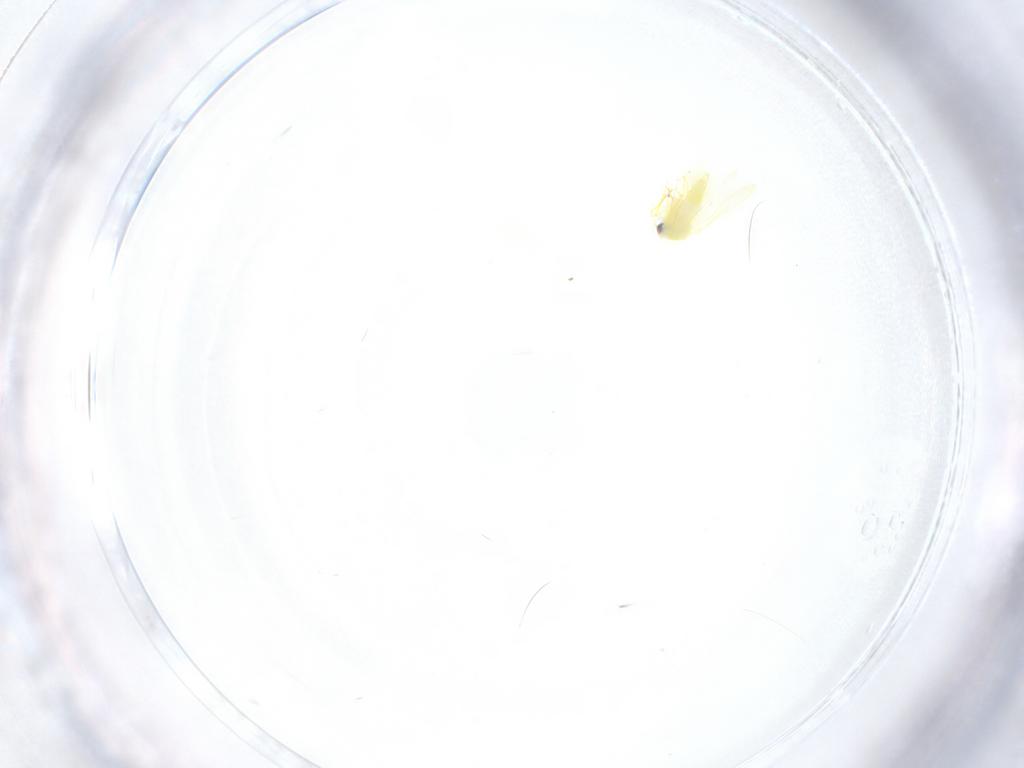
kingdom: Animalia
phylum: Arthropoda
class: Insecta
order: Hemiptera
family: Aleyrodidae
